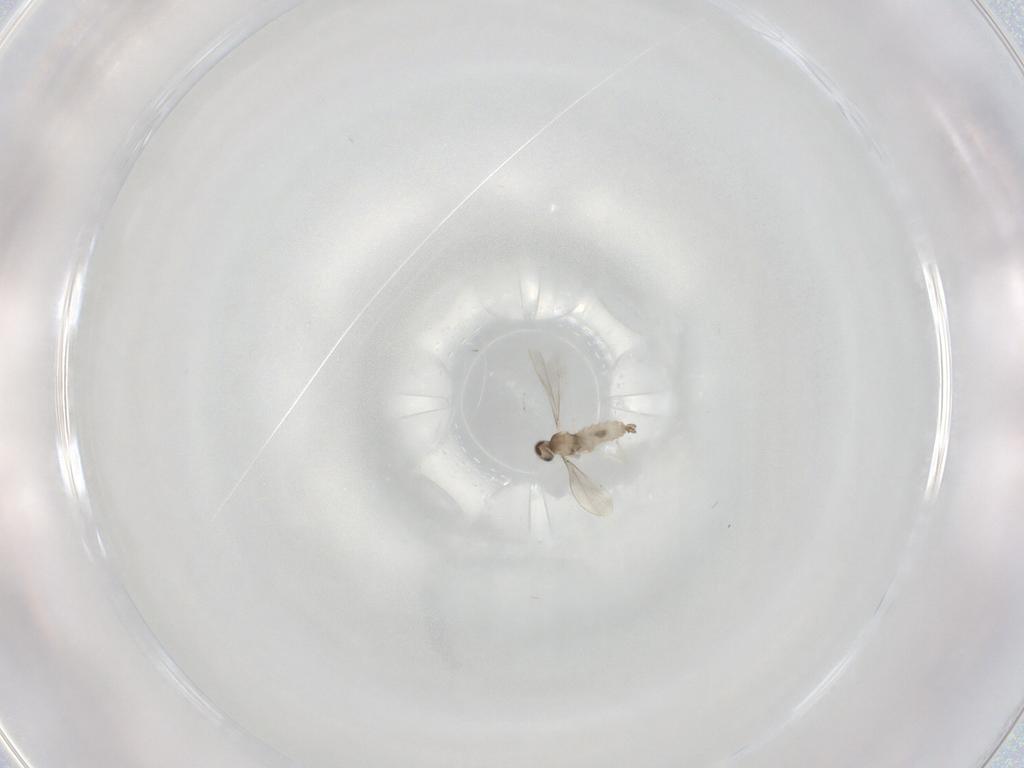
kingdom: Animalia
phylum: Arthropoda
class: Insecta
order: Diptera
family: Cecidomyiidae
